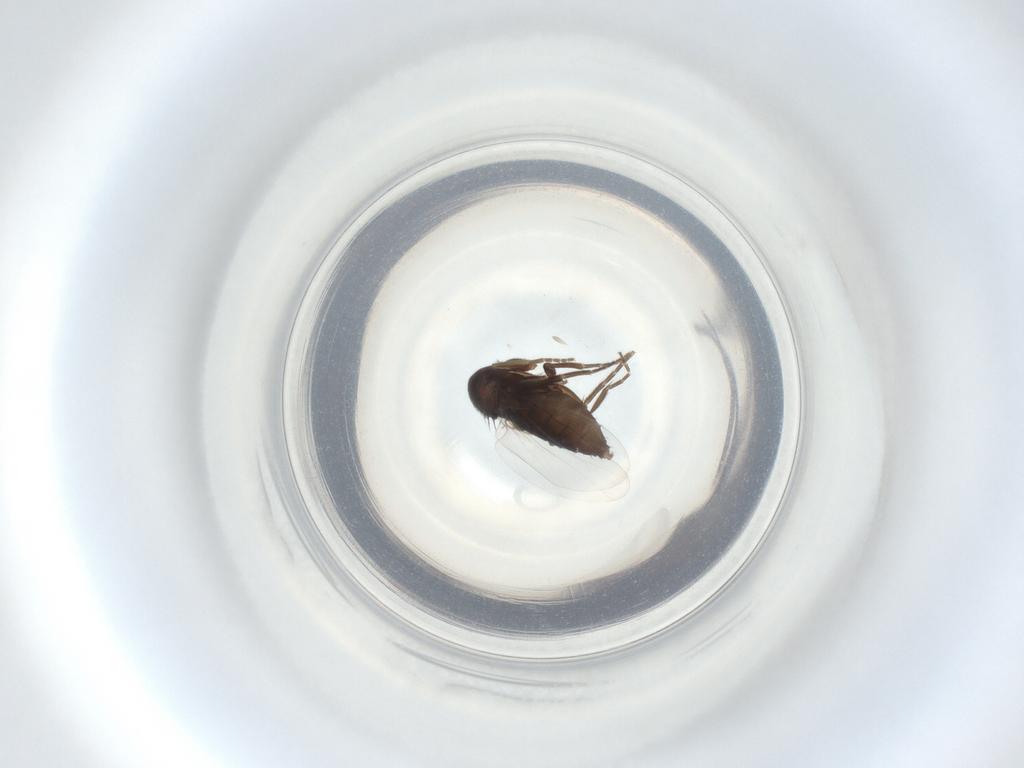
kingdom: Animalia
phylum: Arthropoda
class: Insecta
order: Diptera
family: Phoridae
